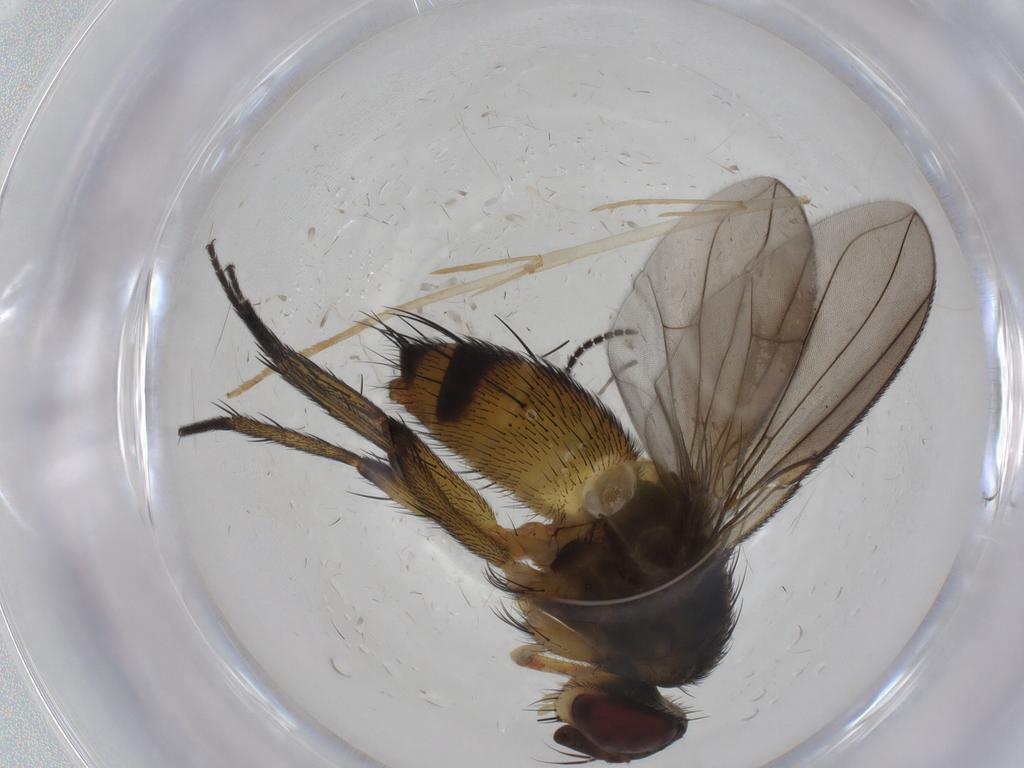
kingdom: Animalia
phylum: Arthropoda
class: Insecta
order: Diptera
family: Tachinidae
